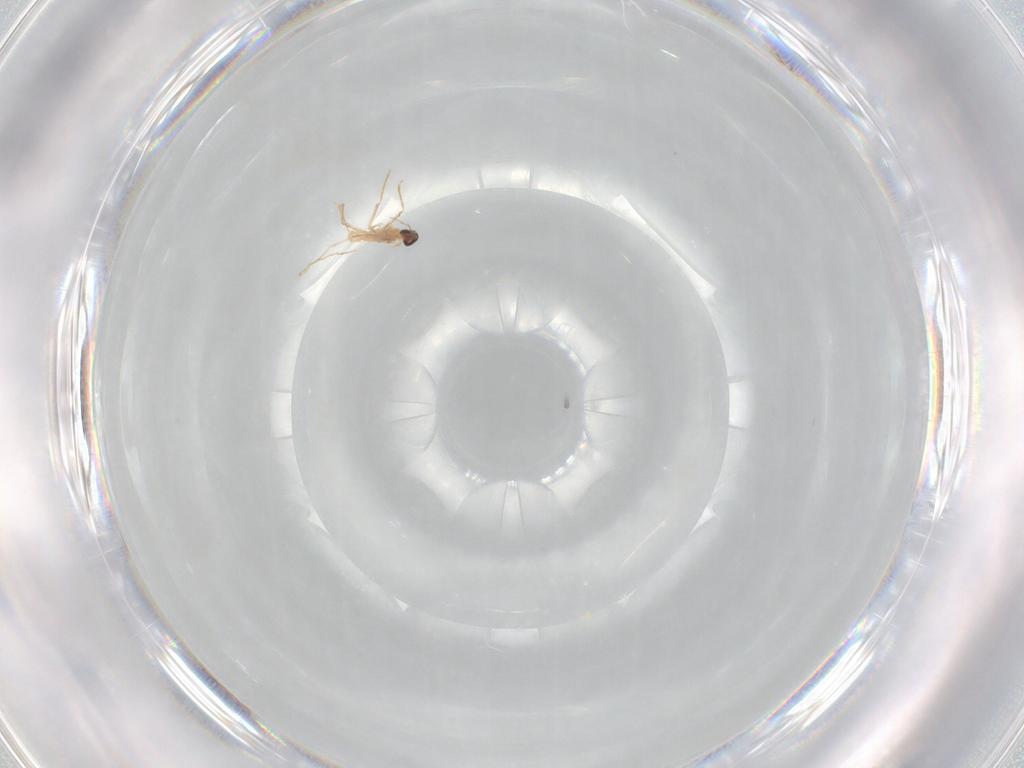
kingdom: Animalia
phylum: Arthropoda
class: Insecta
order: Diptera
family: Cecidomyiidae
